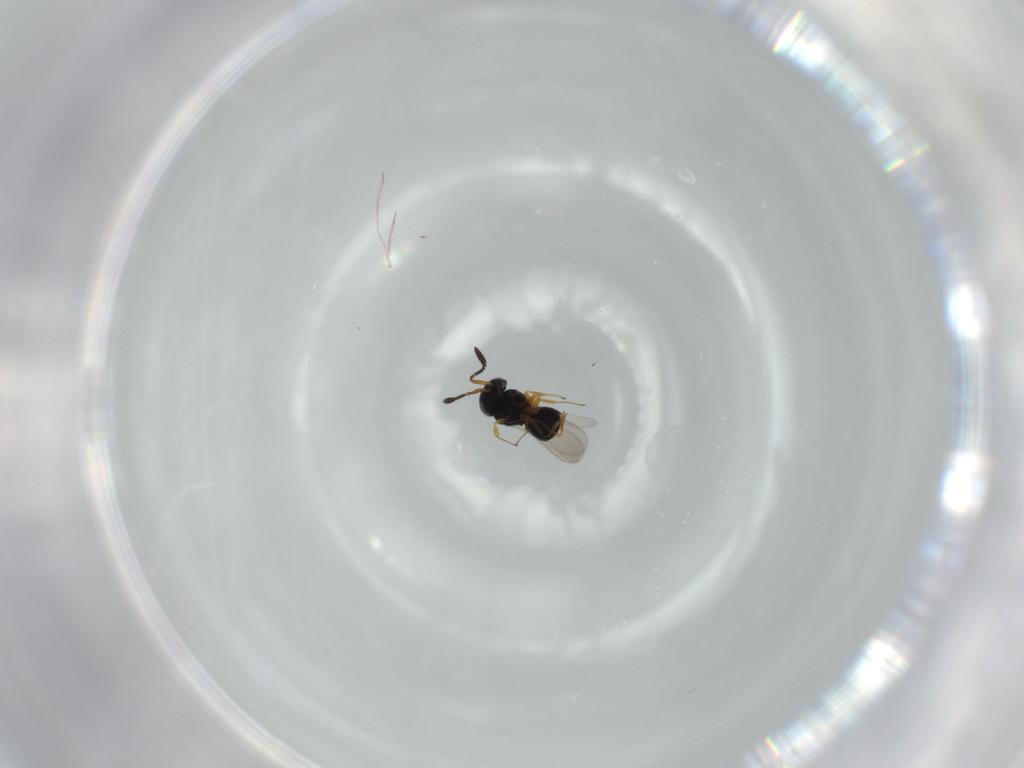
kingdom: Animalia
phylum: Arthropoda
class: Insecta
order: Hymenoptera
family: Scelionidae
